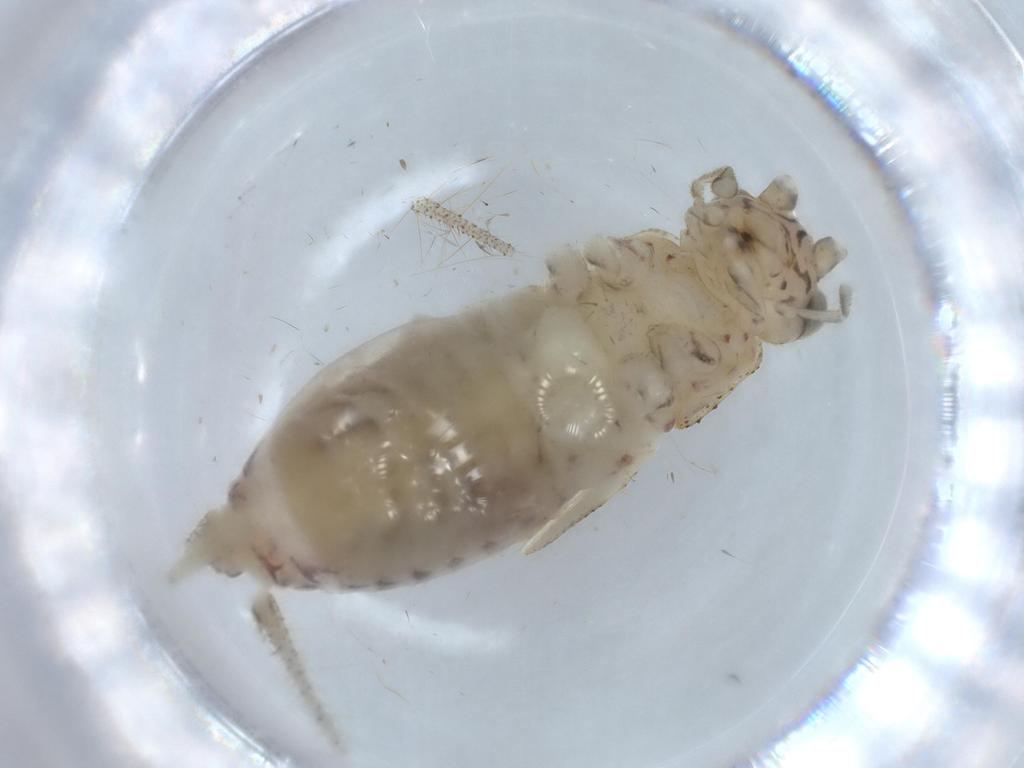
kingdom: Animalia
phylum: Arthropoda
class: Insecta
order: Orthoptera
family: Trigonidiidae
